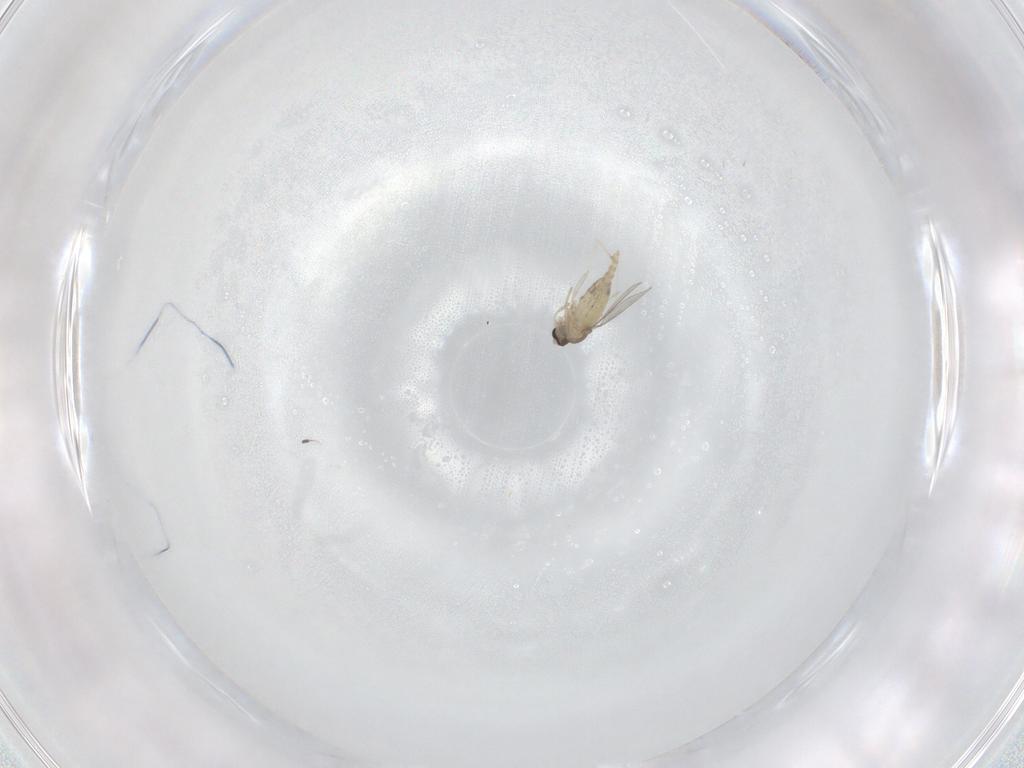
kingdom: Animalia
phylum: Arthropoda
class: Insecta
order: Diptera
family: Cecidomyiidae
